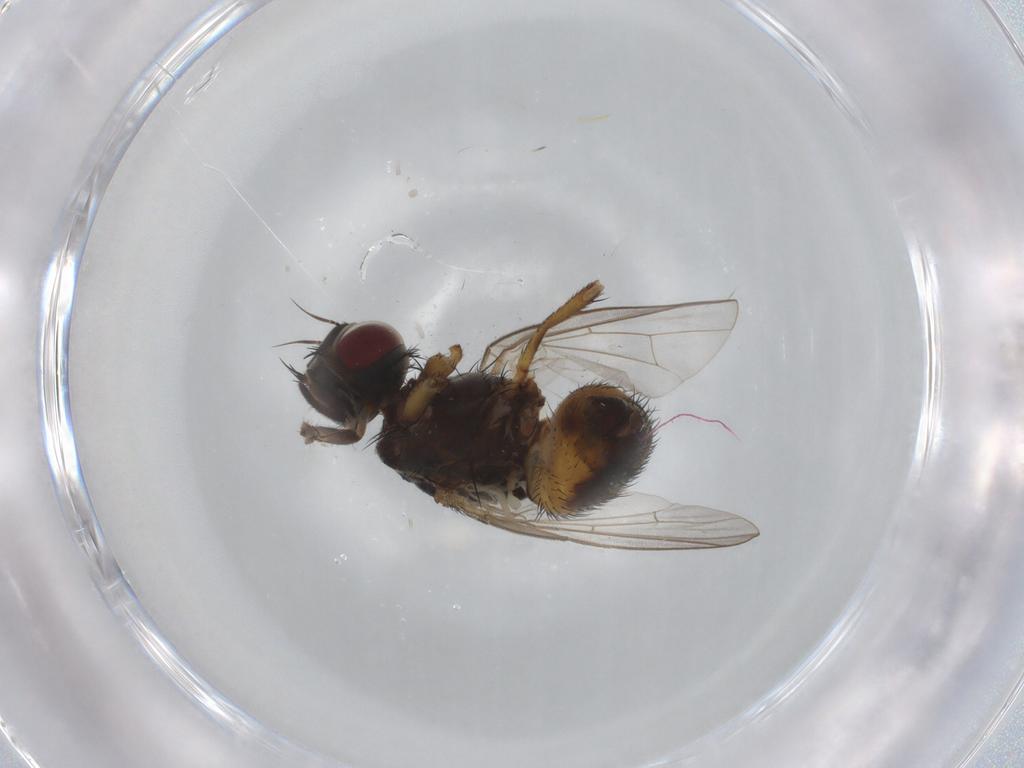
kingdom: Animalia
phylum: Arthropoda
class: Insecta
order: Diptera
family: Muscidae
